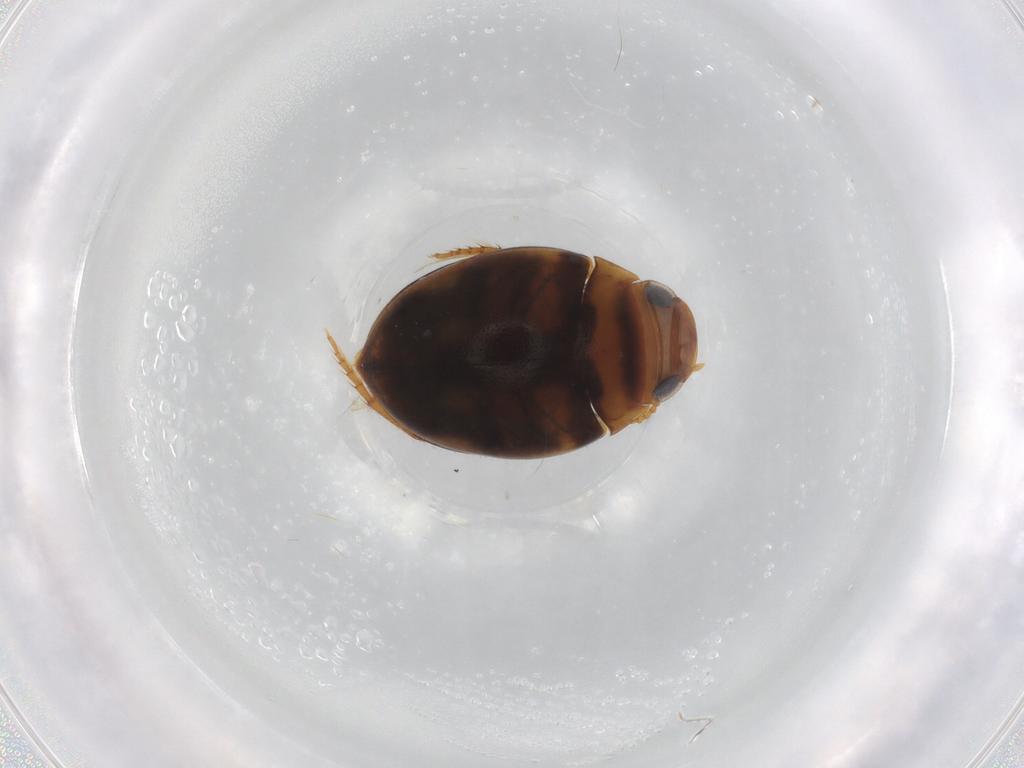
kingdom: Animalia
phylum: Arthropoda
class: Insecta
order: Coleoptera
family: Dytiscidae
